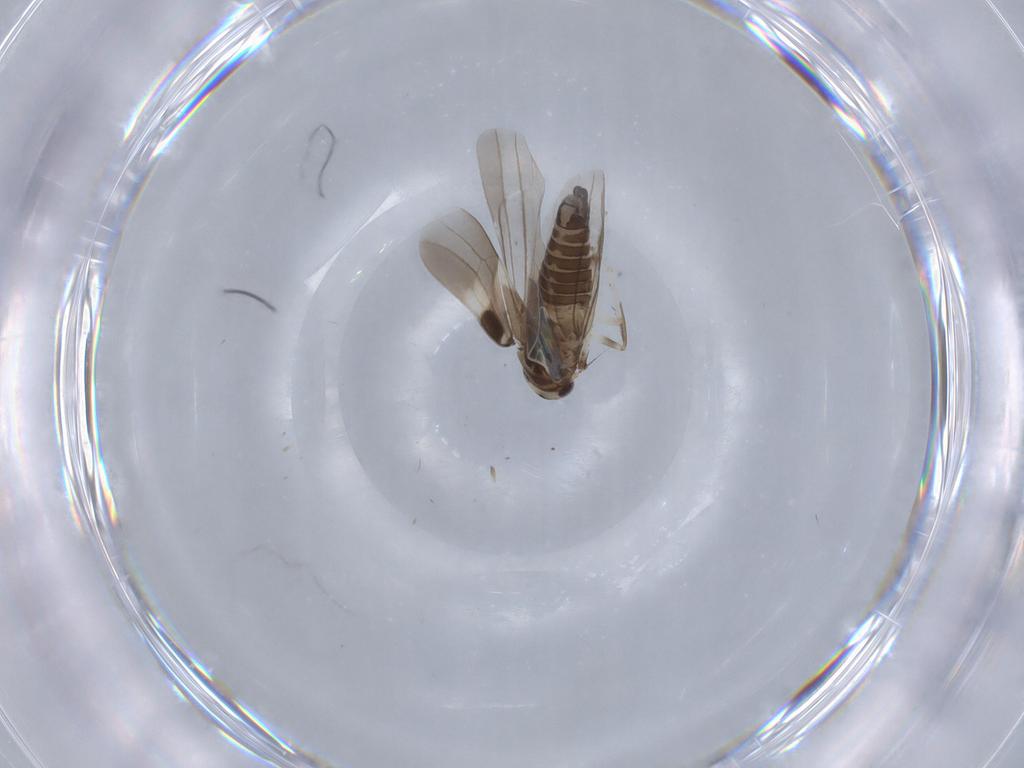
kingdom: Animalia
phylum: Arthropoda
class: Insecta
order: Hemiptera
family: Cicadellidae
